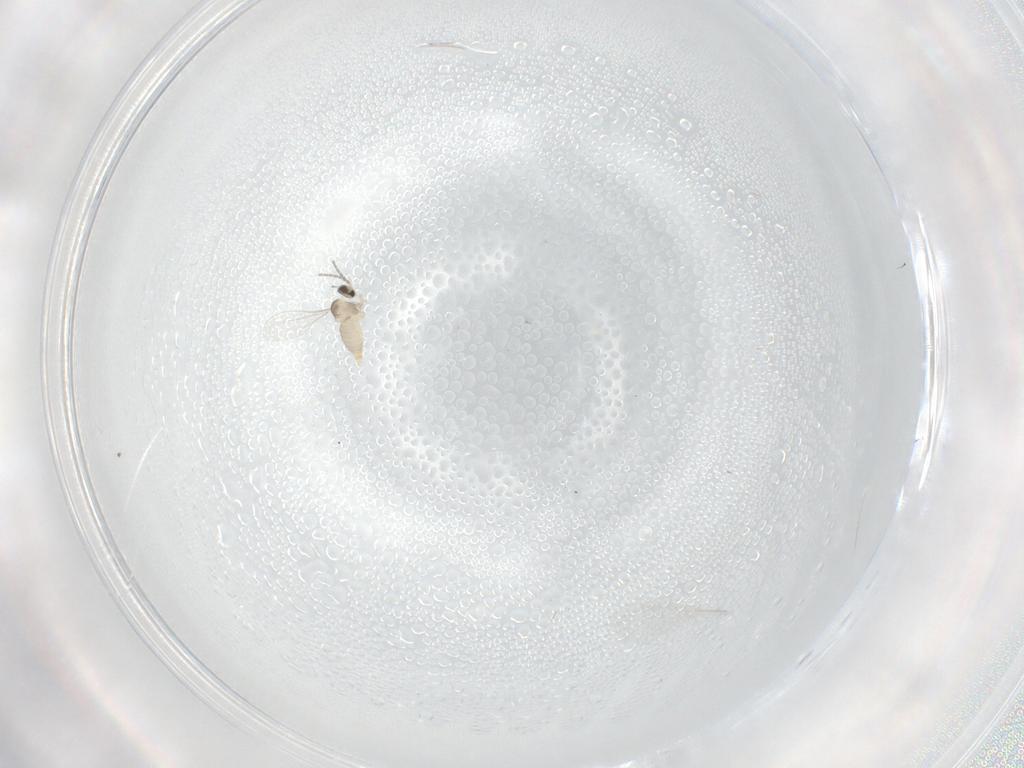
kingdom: Animalia
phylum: Arthropoda
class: Insecta
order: Diptera
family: Cecidomyiidae
